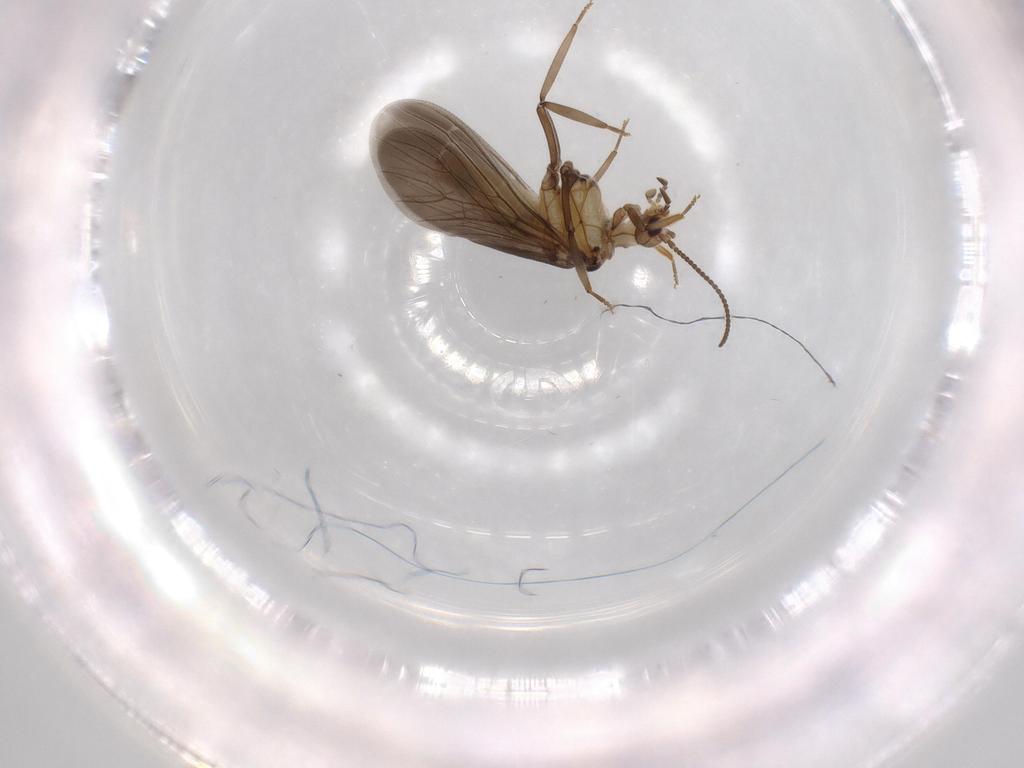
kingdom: Animalia
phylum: Arthropoda
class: Insecta
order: Neuroptera
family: Coniopterygidae
